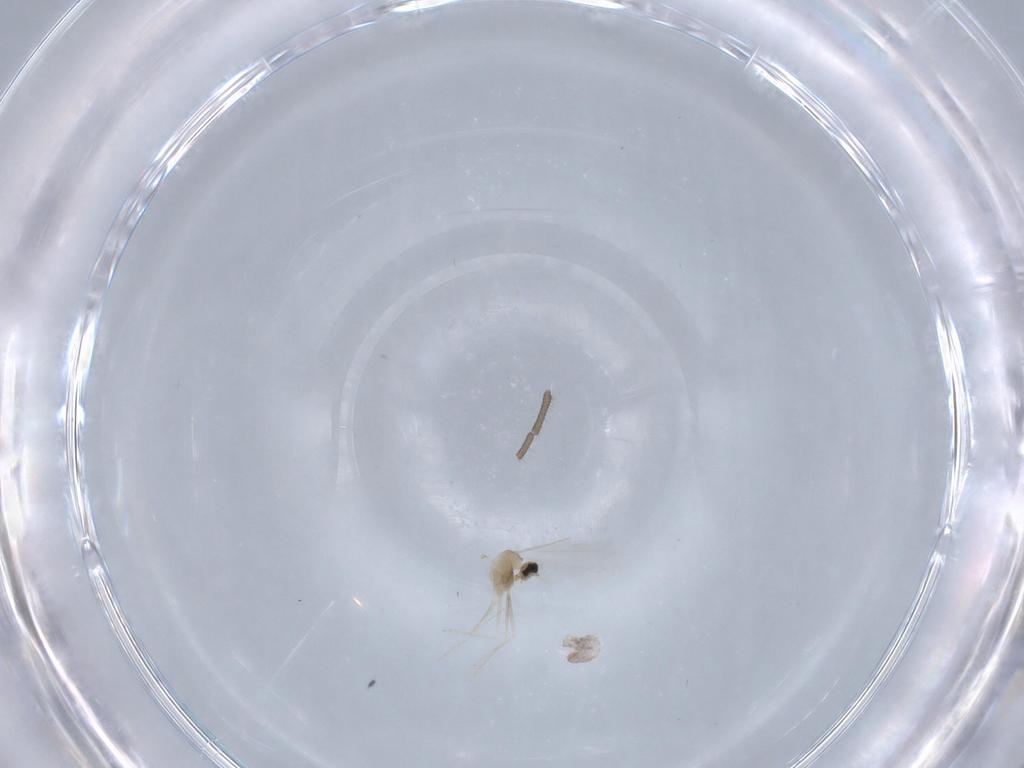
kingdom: Animalia
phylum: Arthropoda
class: Insecta
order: Diptera
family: Cecidomyiidae
